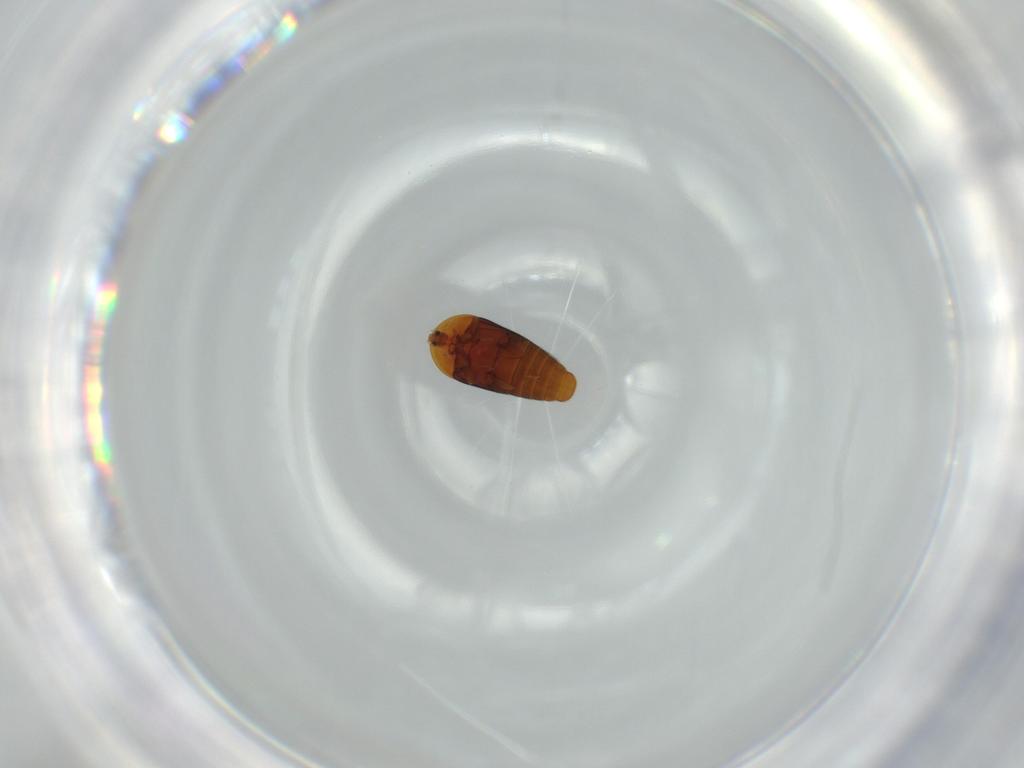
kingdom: Animalia
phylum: Arthropoda
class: Insecta
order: Coleoptera
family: Corylophidae
